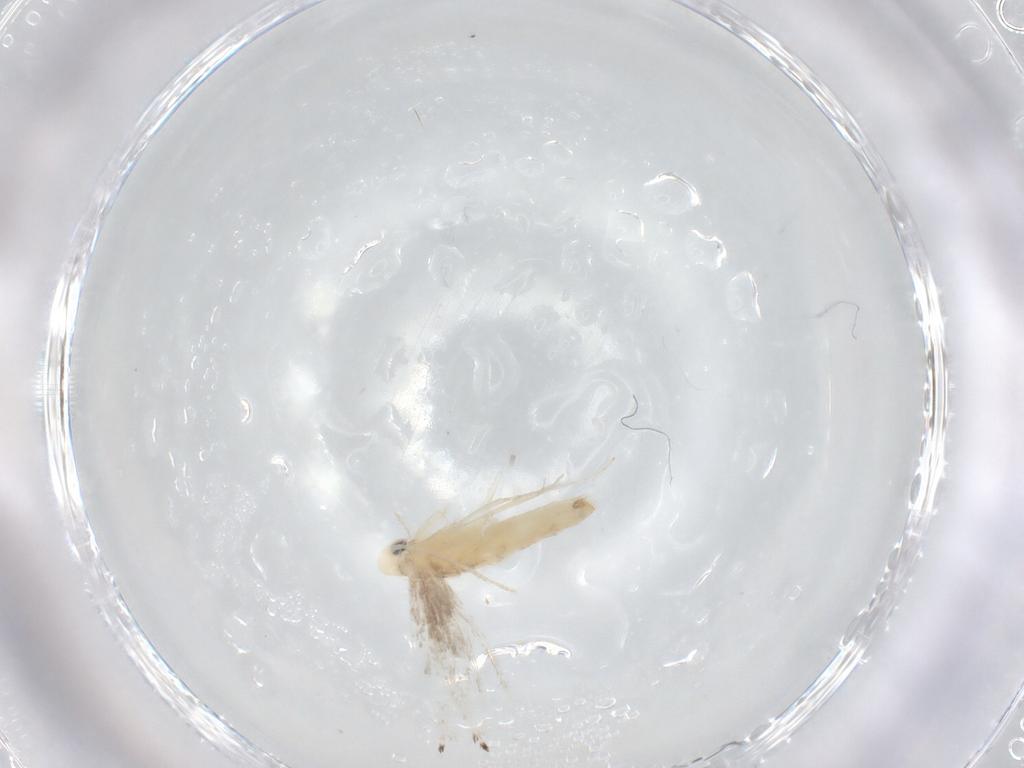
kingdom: Animalia
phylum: Arthropoda
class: Insecta
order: Lepidoptera
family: Gracillariidae
